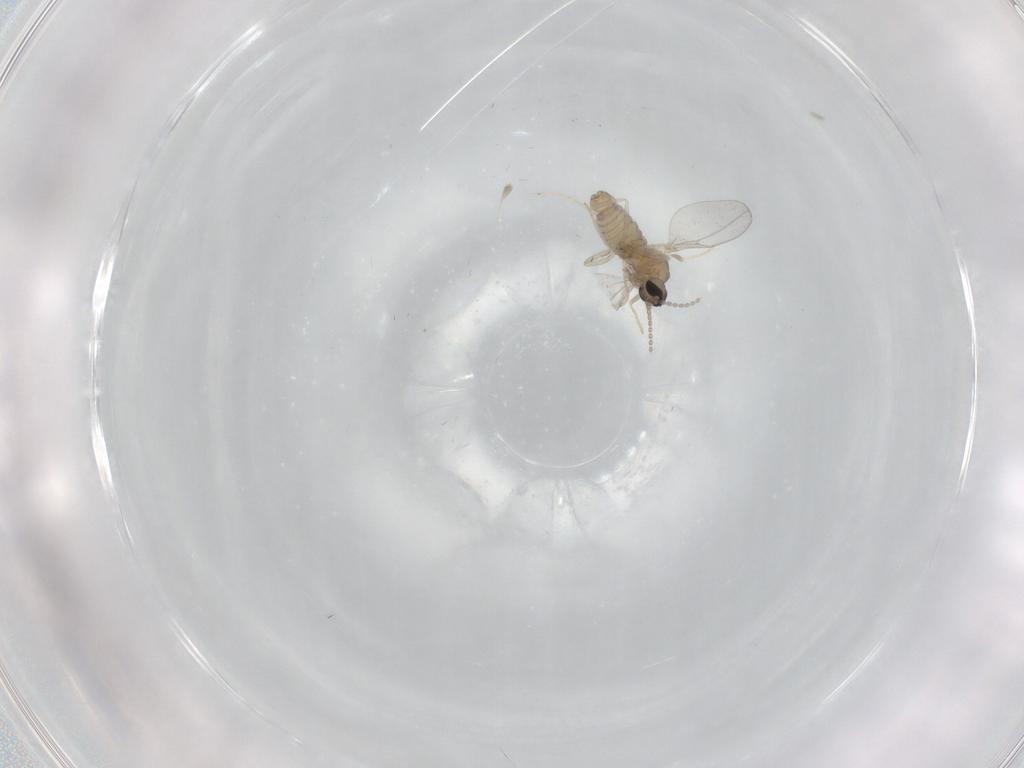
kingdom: Animalia
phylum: Arthropoda
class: Insecta
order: Diptera
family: Cecidomyiidae
